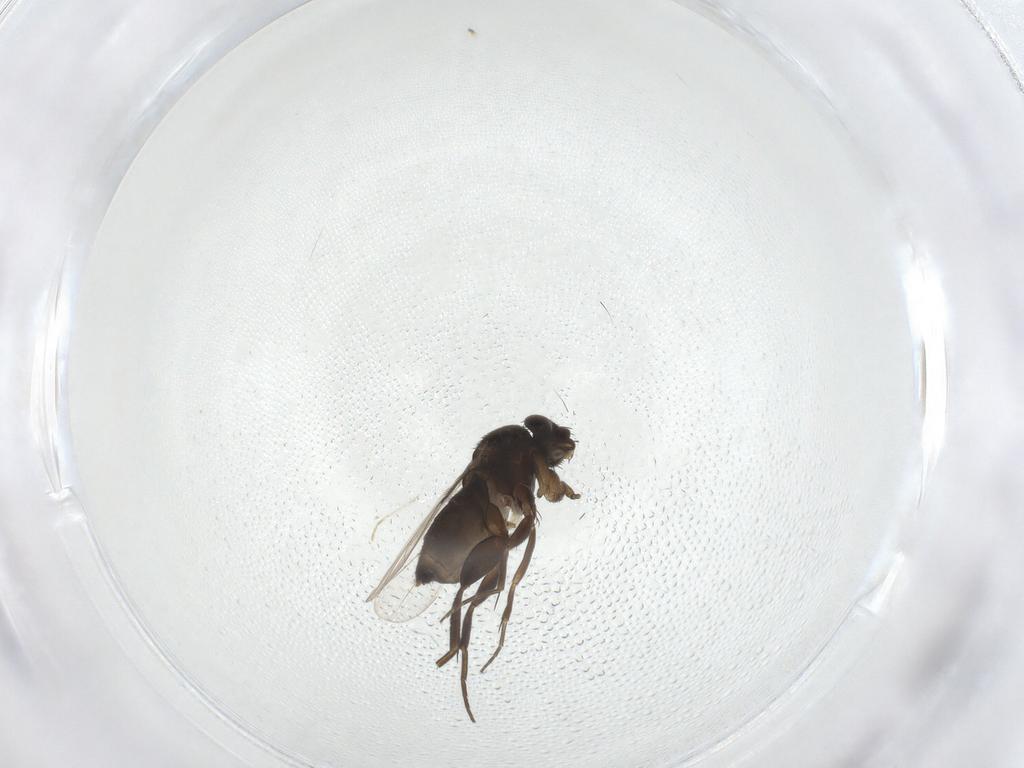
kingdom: Animalia
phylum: Arthropoda
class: Insecta
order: Diptera
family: Phoridae
